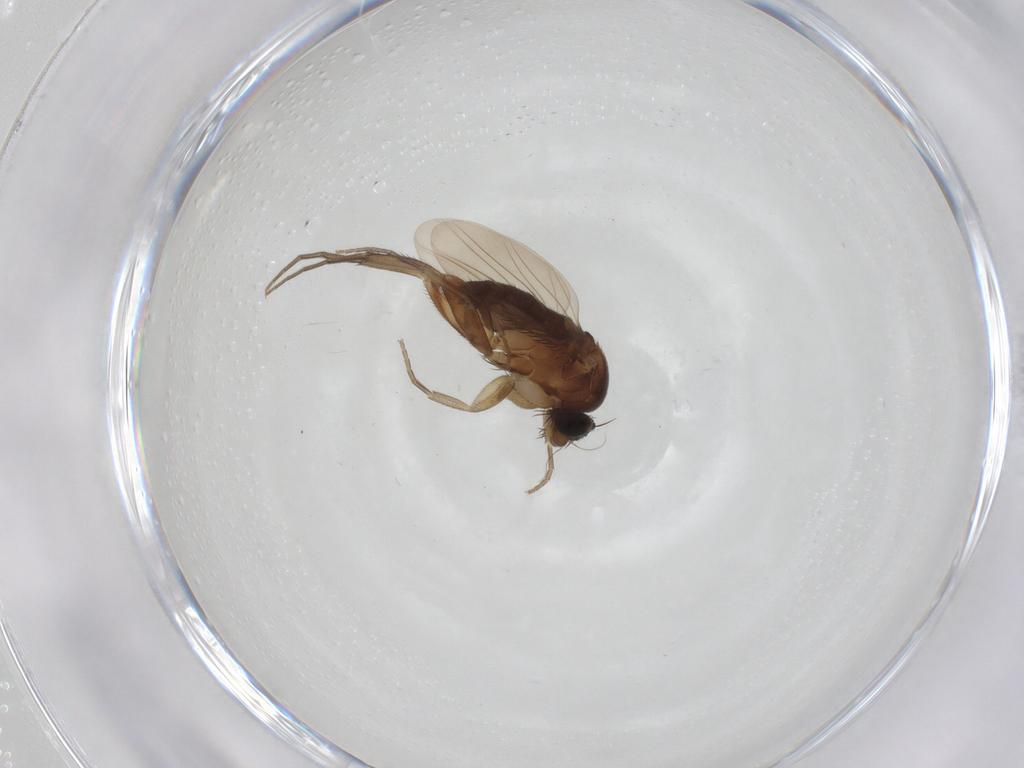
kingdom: Animalia
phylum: Arthropoda
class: Insecta
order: Diptera
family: Phoridae
